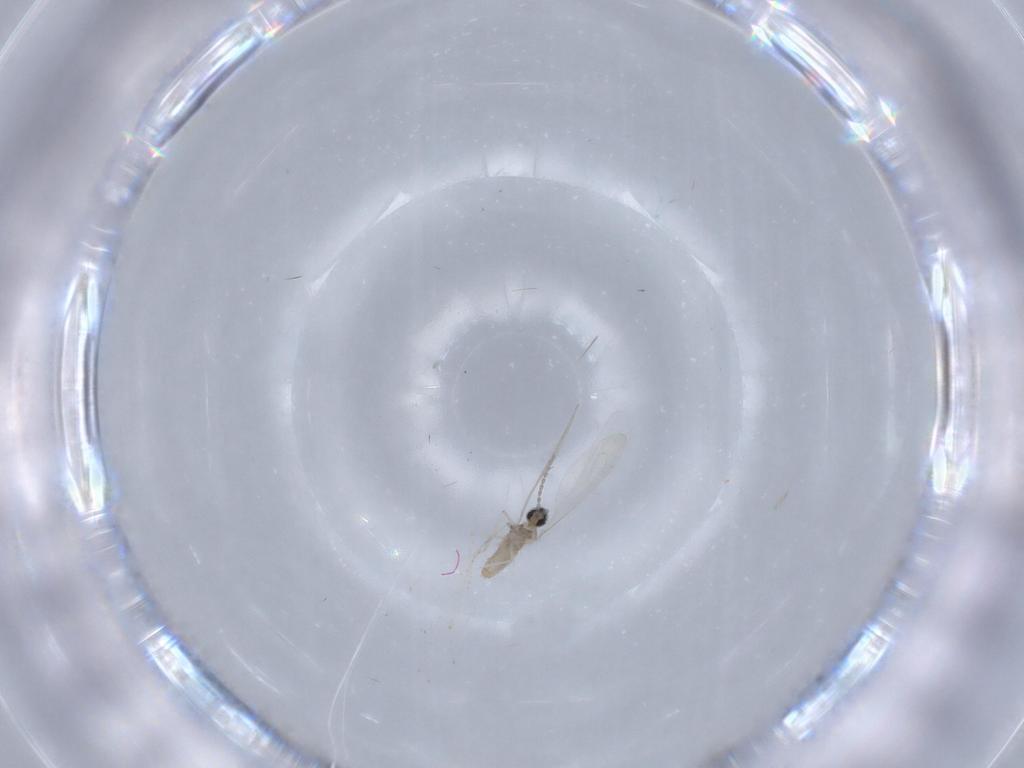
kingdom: Animalia
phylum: Arthropoda
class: Insecta
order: Diptera
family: Cecidomyiidae
